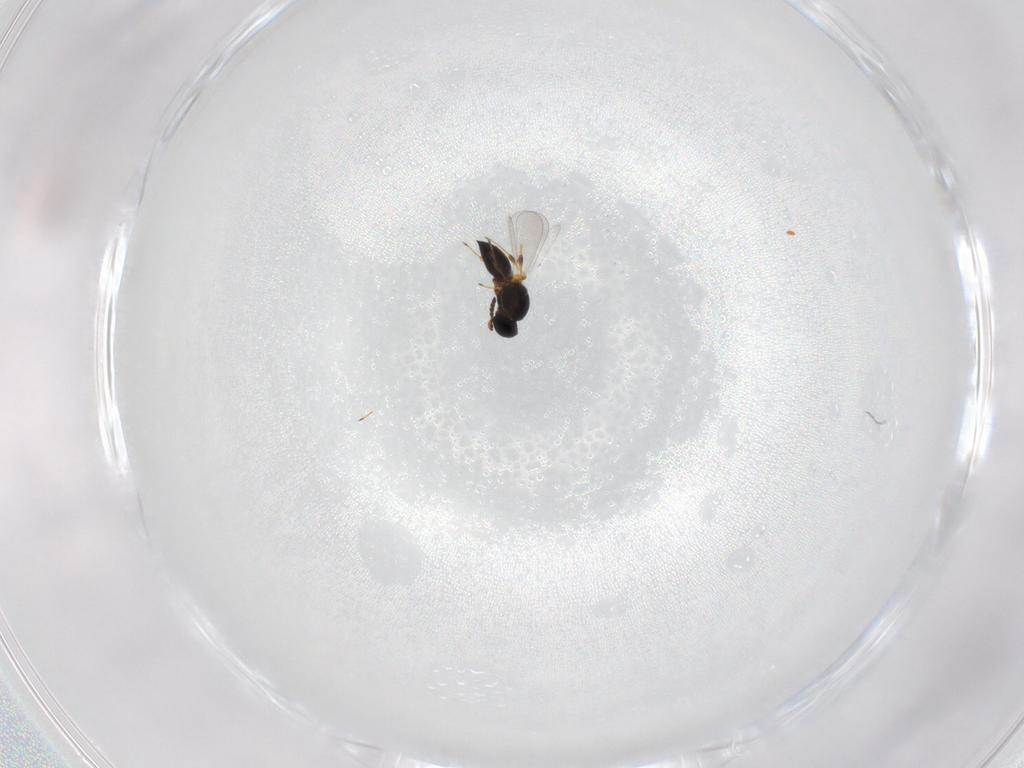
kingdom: Animalia
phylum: Arthropoda
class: Insecta
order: Hymenoptera
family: Platygastridae
